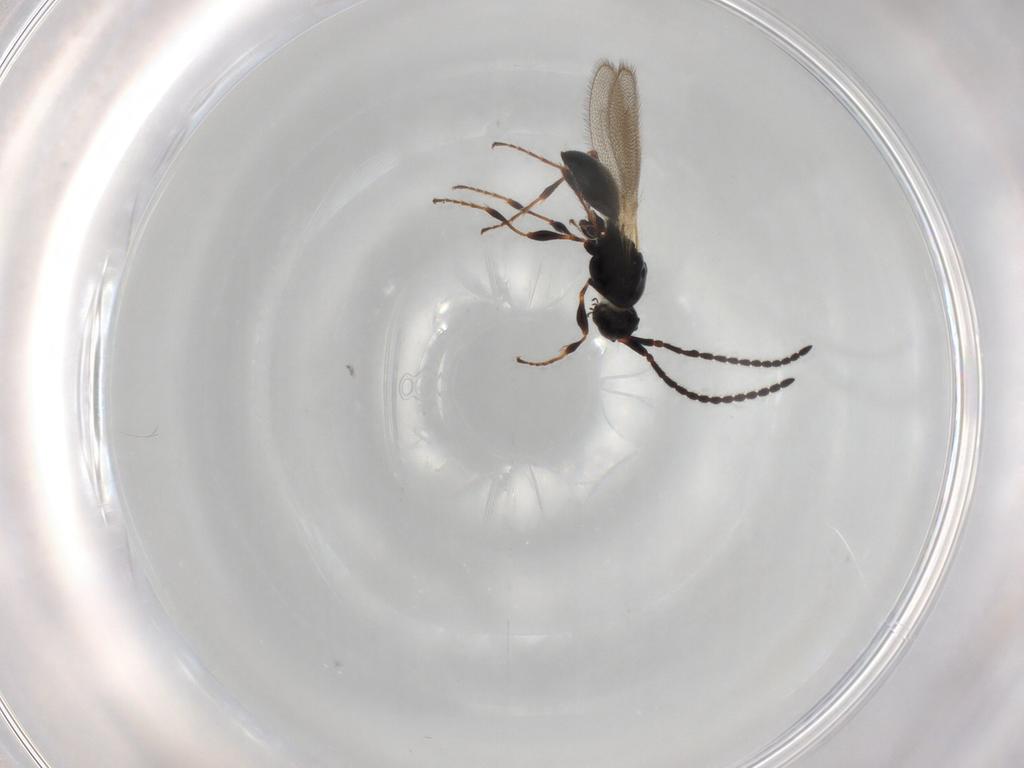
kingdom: Animalia
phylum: Arthropoda
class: Insecta
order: Hymenoptera
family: Diapriidae
